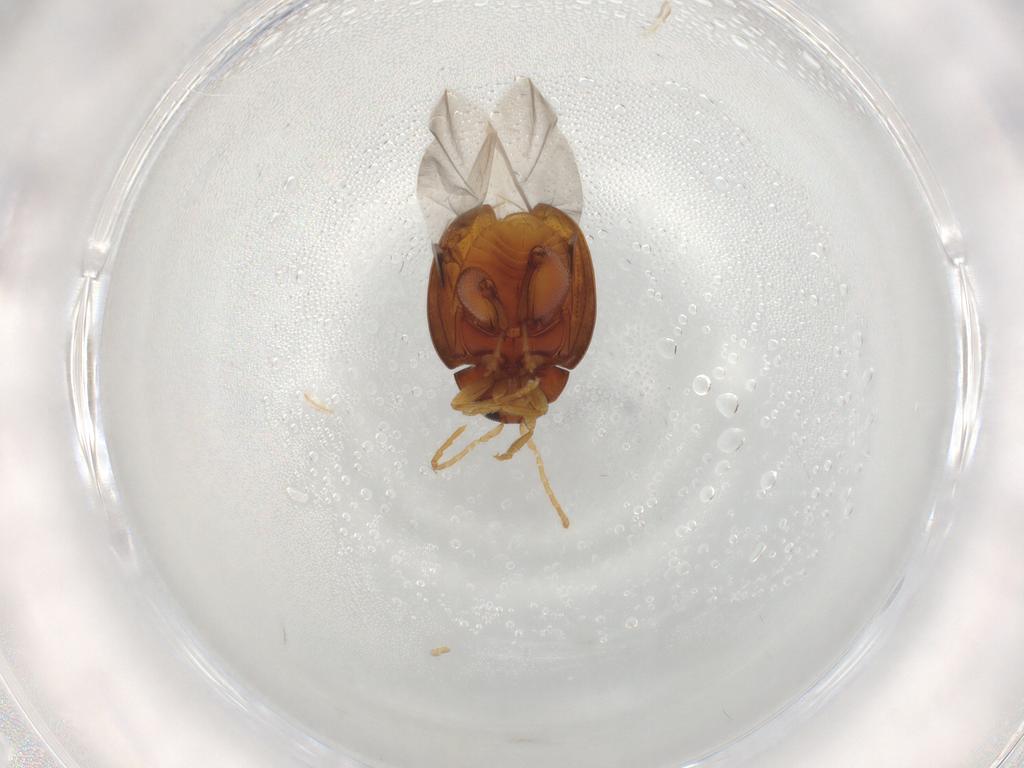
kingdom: Animalia
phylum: Arthropoda
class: Insecta
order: Coleoptera
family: Chrysomelidae
